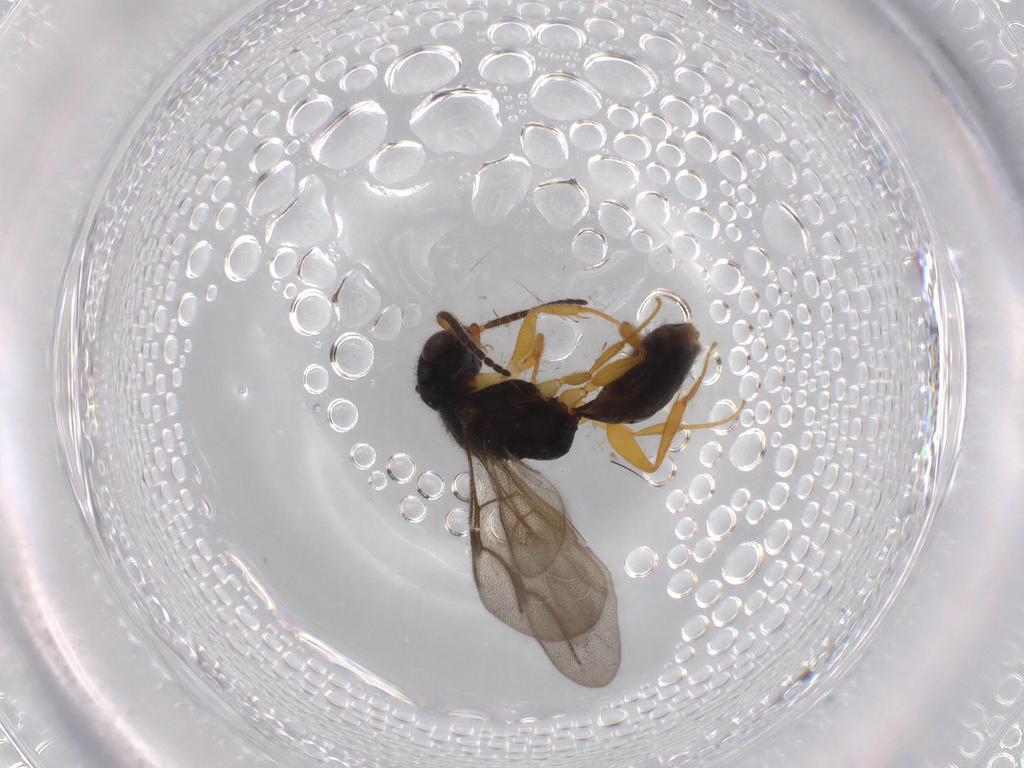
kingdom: Animalia
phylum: Arthropoda
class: Insecta
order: Hymenoptera
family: Bethylidae
